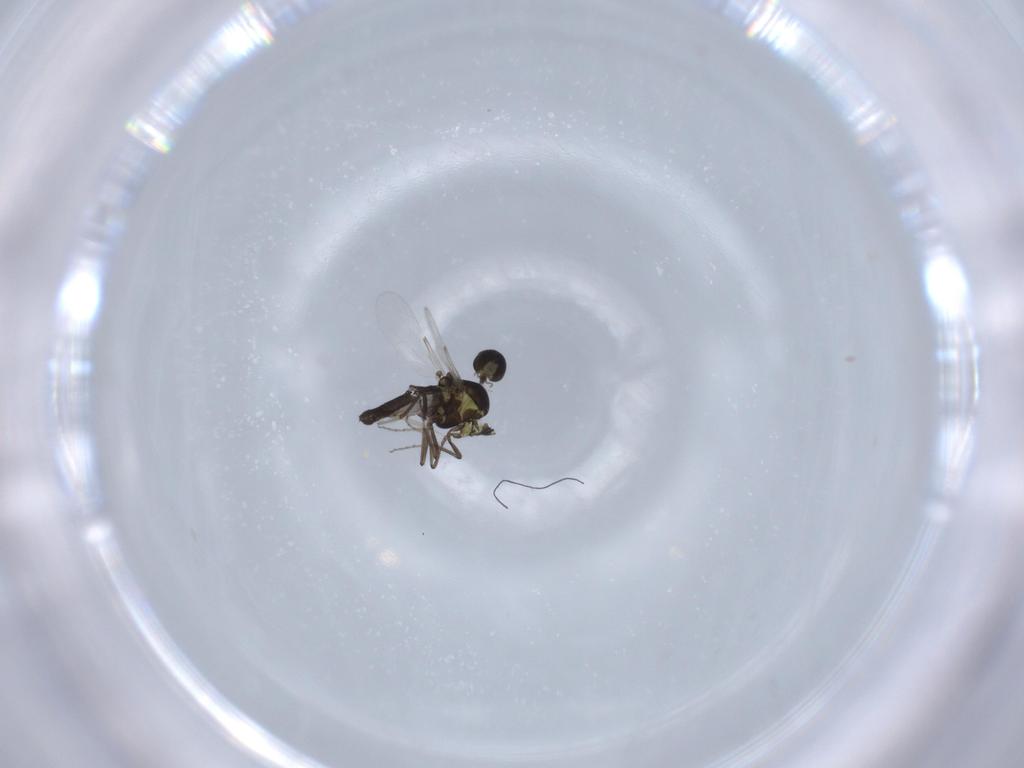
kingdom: Animalia
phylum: Arthropoda
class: Insecta
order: Diptera
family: Ceratopogonidae
